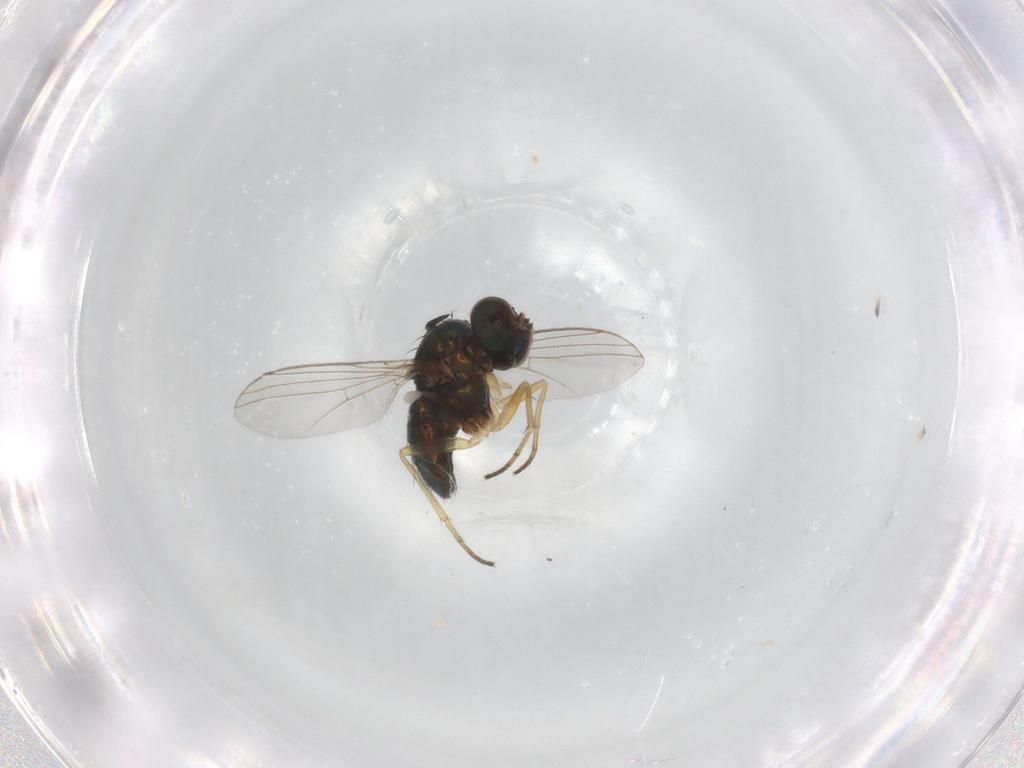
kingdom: Animalia
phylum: Arthropoda
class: Insecta
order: Diptera
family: Dolichopodidae
